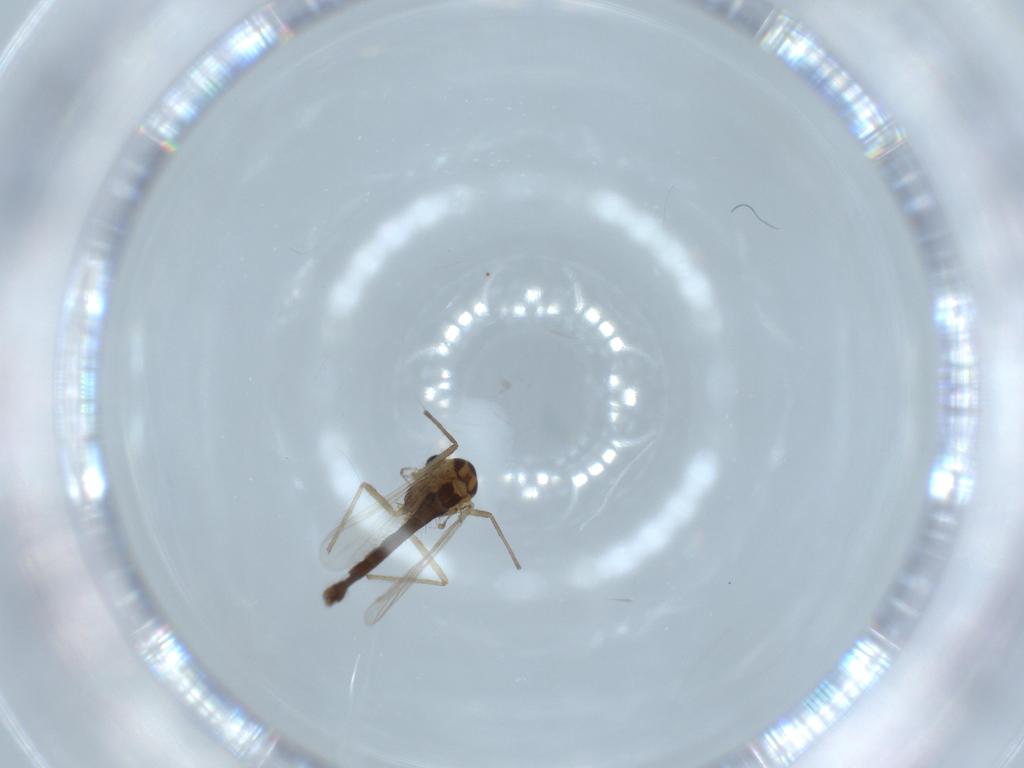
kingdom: Animalia
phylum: Arthropoda
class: Insecta
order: Diptera
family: Chironomidae
